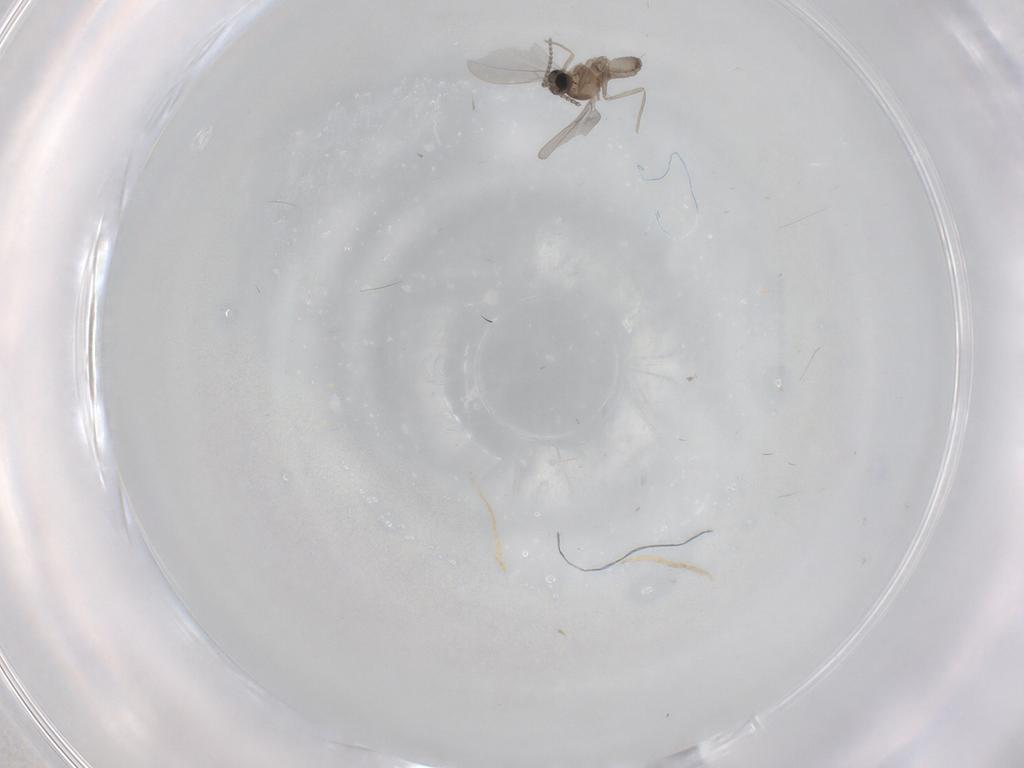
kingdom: Animalia
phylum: Arthropoda
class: Insecta
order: Diptera
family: Cecidomyiidae
